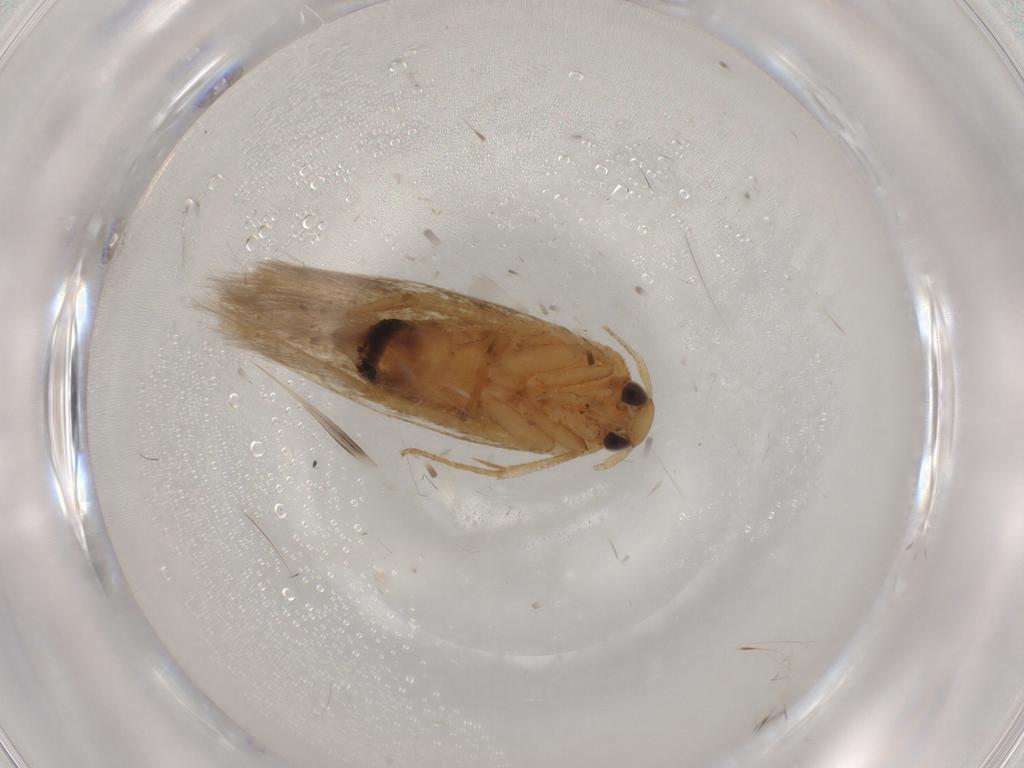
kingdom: Animalia
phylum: Arthropoda
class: Insecta
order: Lepidoptera
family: Cosmopterigidae
